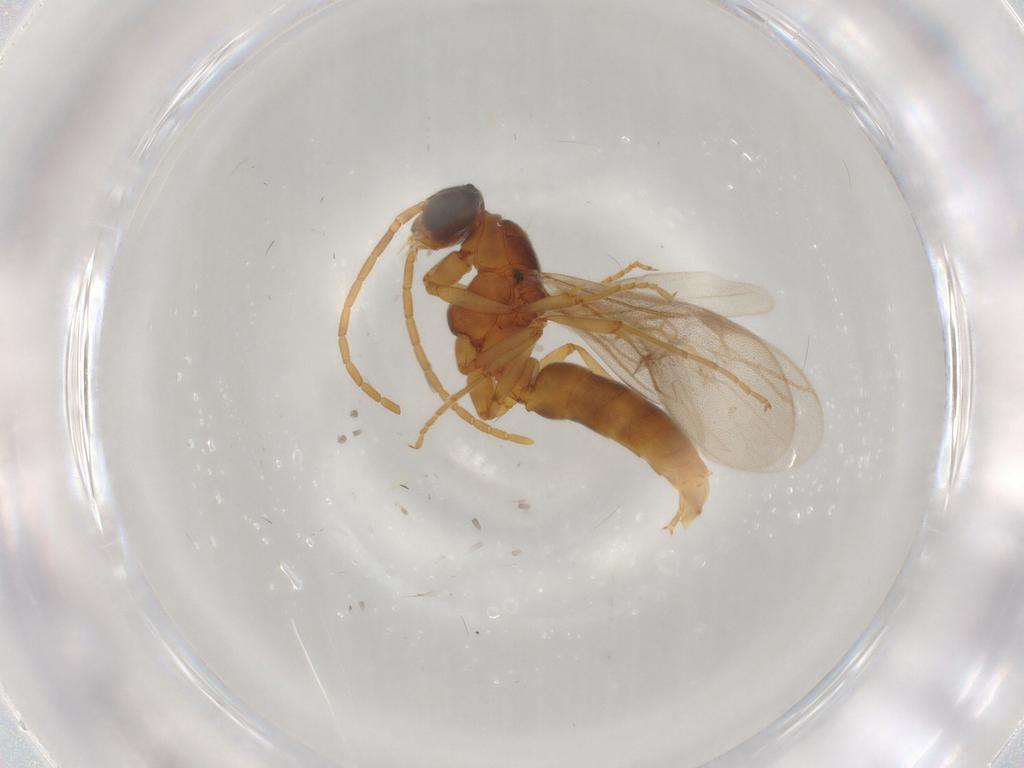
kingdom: Animalia
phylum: Arthropoda
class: Insecta
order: Hymenoptera
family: Formicidae
